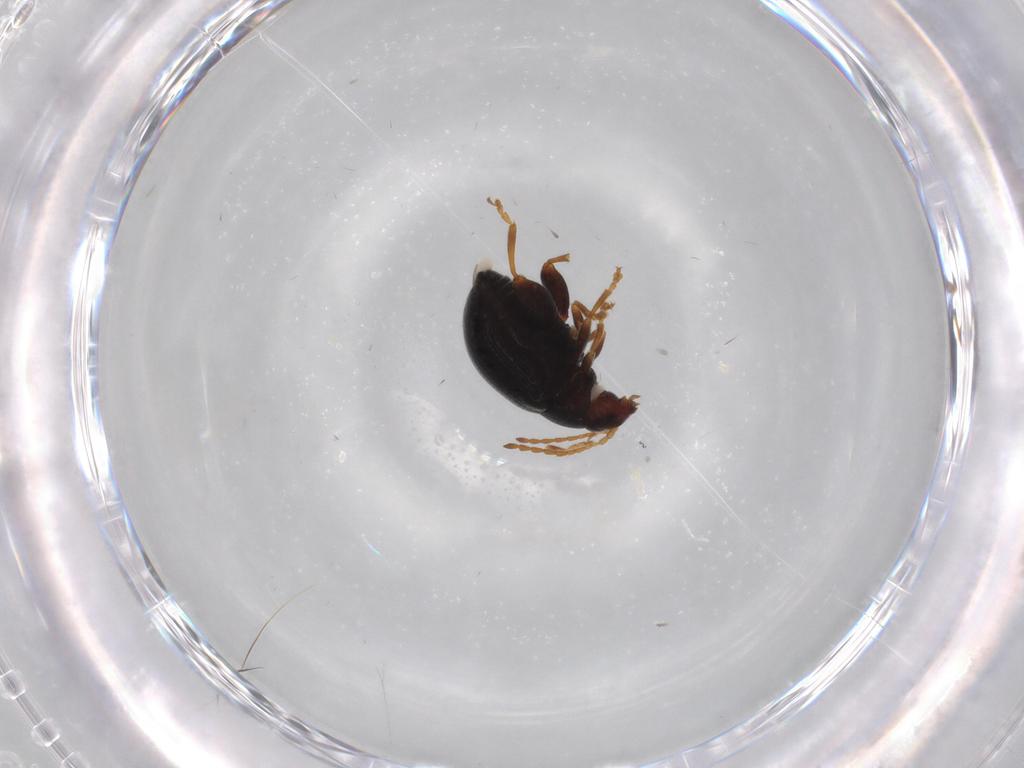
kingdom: Animalia
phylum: Arthropoda
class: Insecta
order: Coleoptera
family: Chrysomelidae
